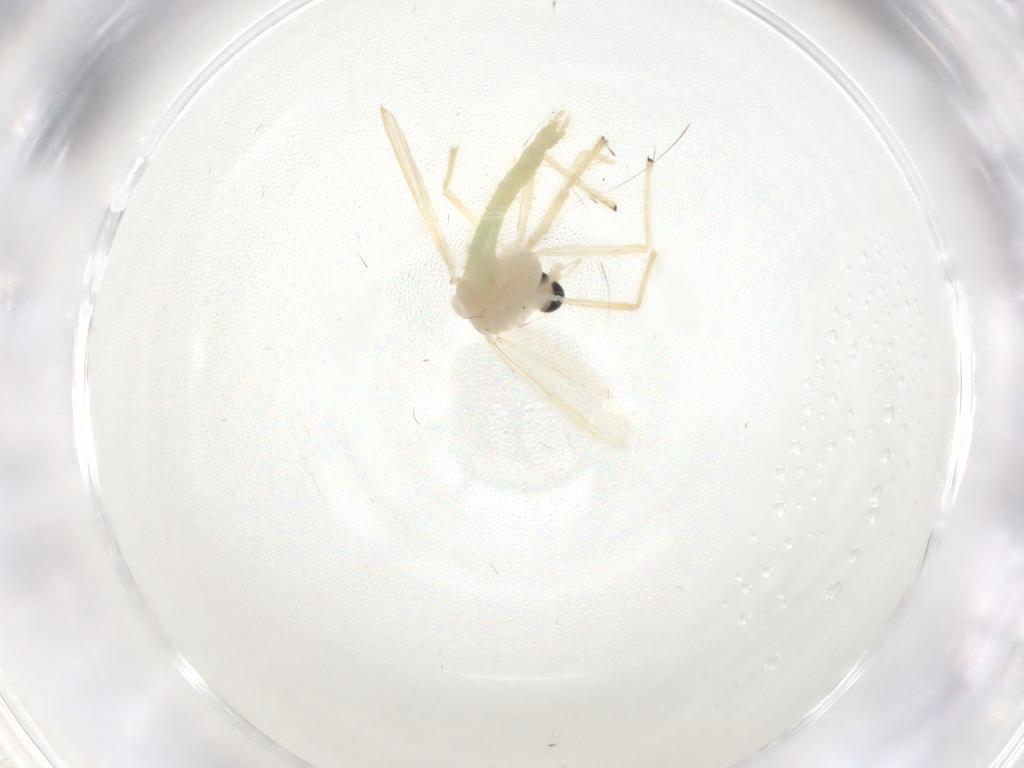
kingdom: Animalia
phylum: Arthropoda
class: Insecta
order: Diptera
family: Chironomidae
